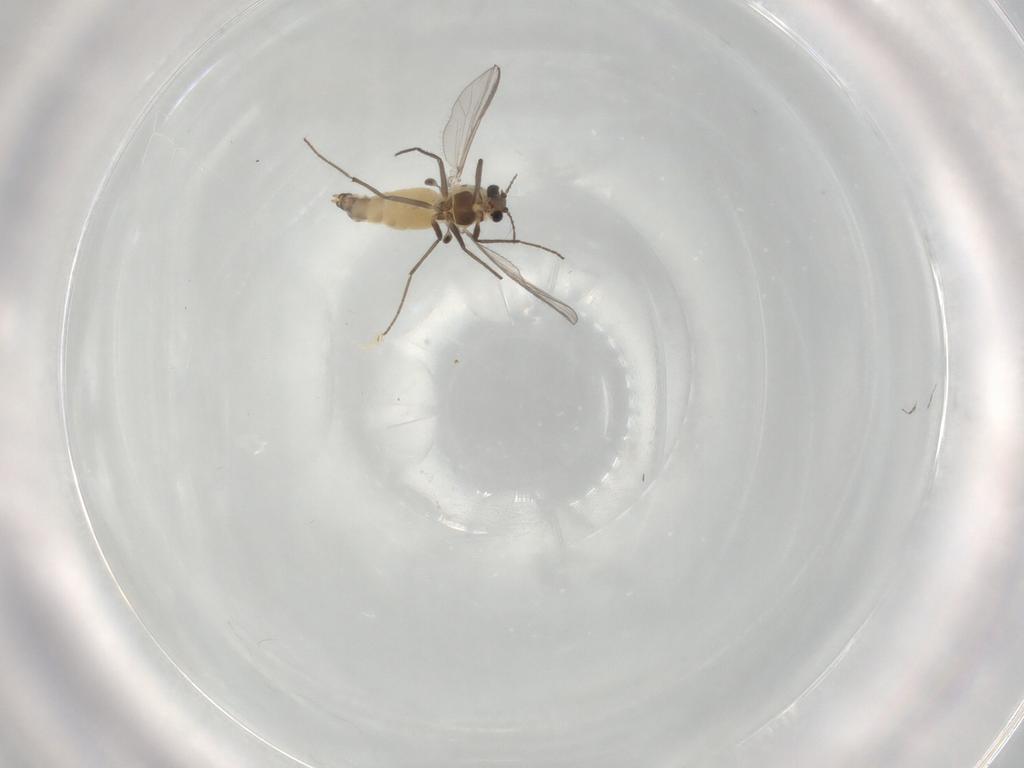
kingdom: Animalia
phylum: Arthropoda
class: Insecta
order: Diptera
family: Chironomidae
